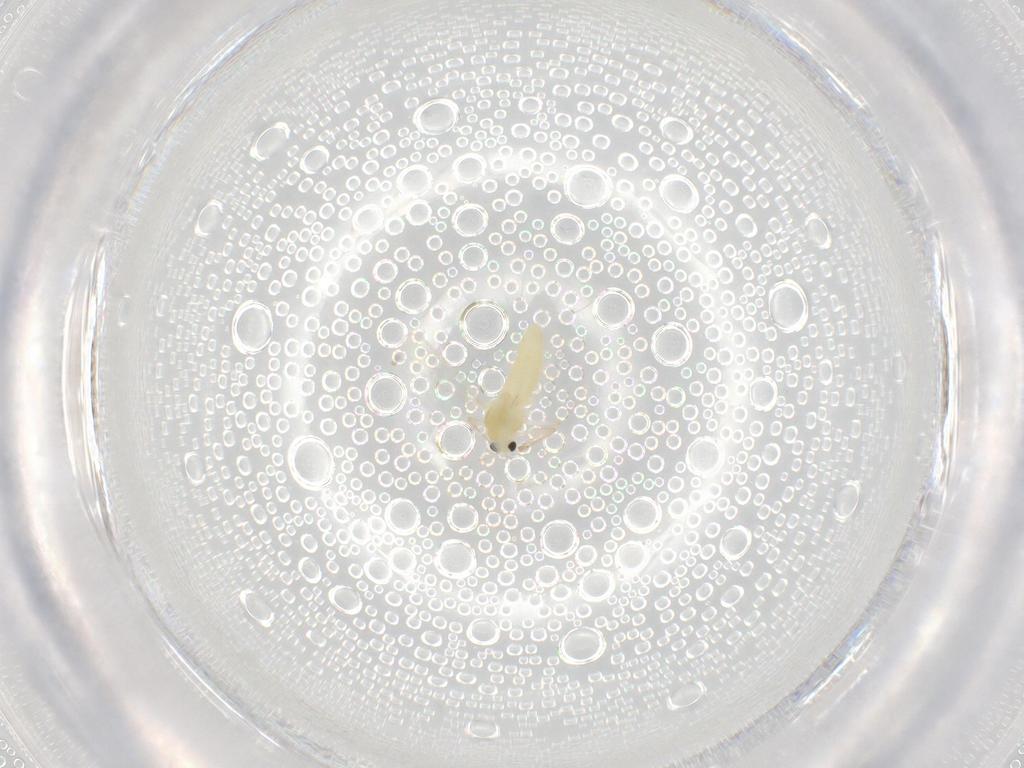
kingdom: Animalia
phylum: Arthropoda
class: Insecta
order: Diptera
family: Chironomidae
